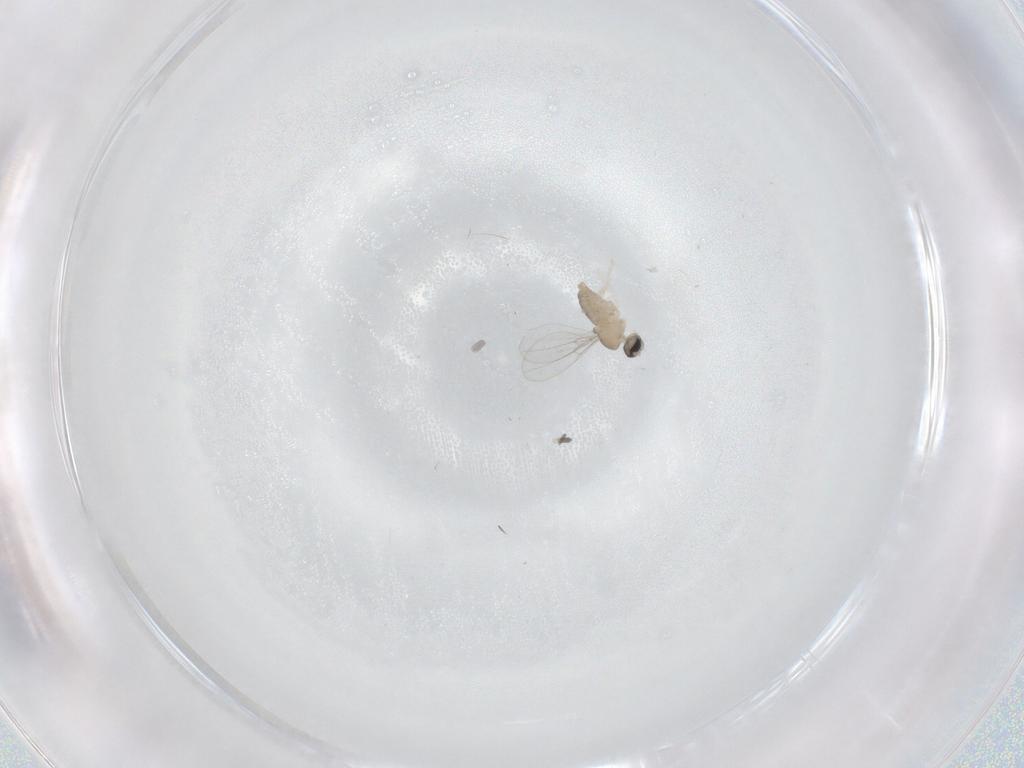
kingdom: Animalia
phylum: Arthropoda
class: Insecta
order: Diptera
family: Cecidomyiidae
